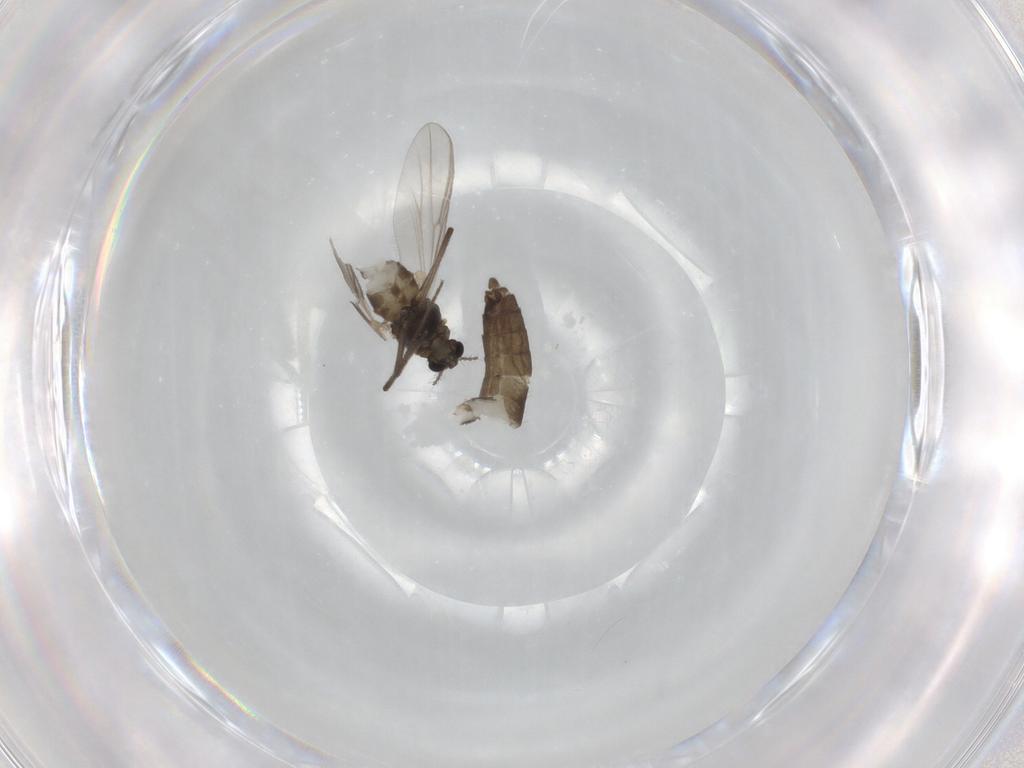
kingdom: Animalia
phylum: Arthropoda
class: Insecta
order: Diptera
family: Chironomidae
